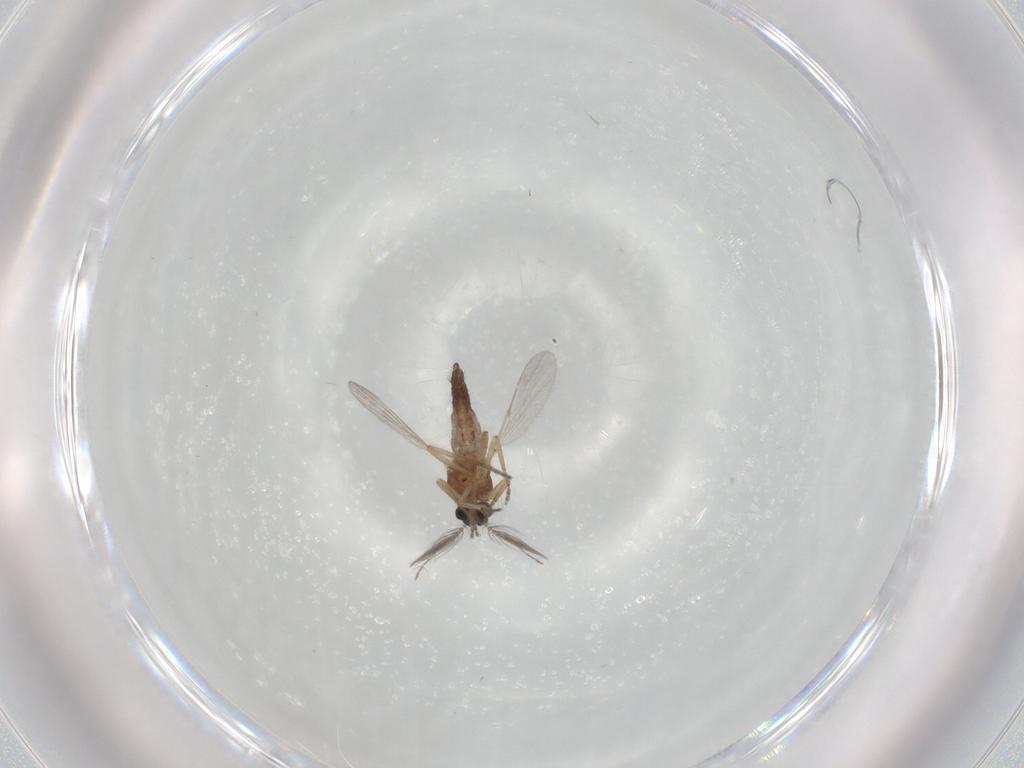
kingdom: Animalia
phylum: Arthropoda
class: Insecta
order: Diptera
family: Ceratopogonidae
